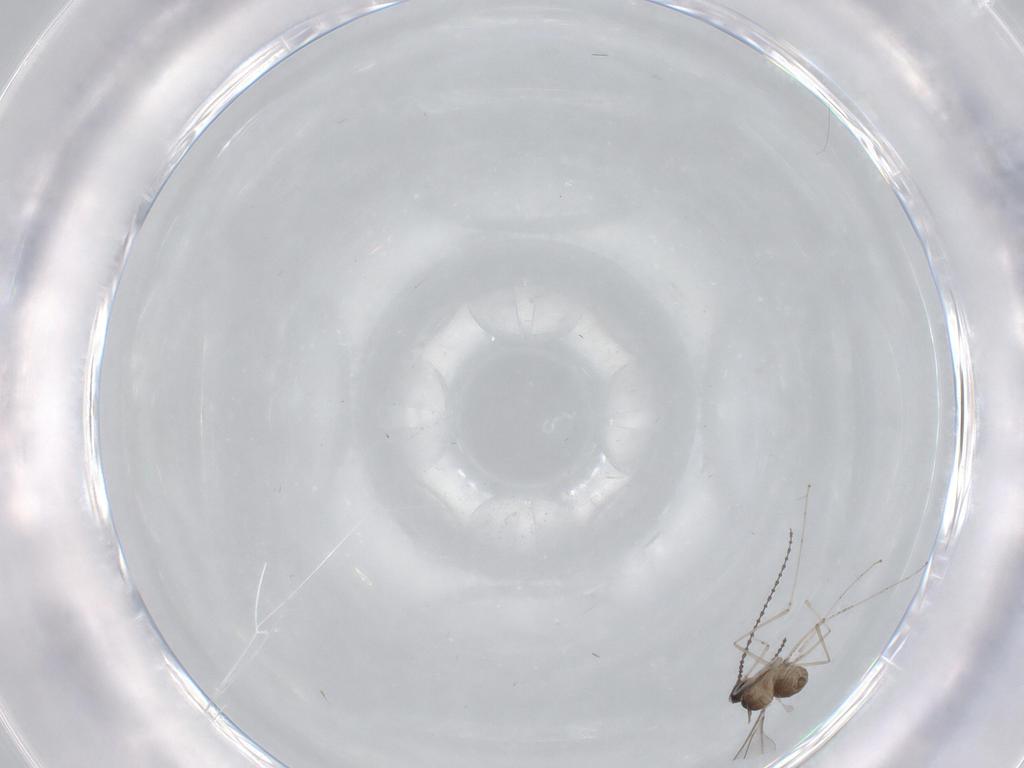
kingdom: Animalia
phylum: Arthropoda
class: Insecta
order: Diptera
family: Cecidomyiidae
